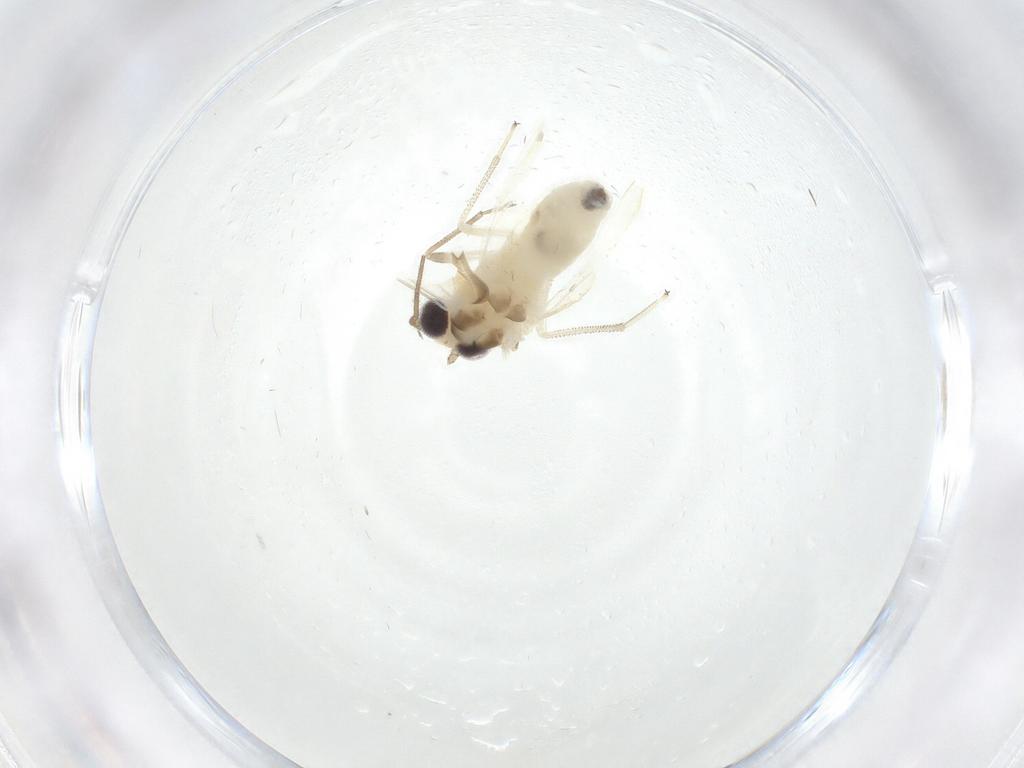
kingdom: Animalia
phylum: Arthropoda
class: Insecta
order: Psocodea
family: Caeciliusidae
